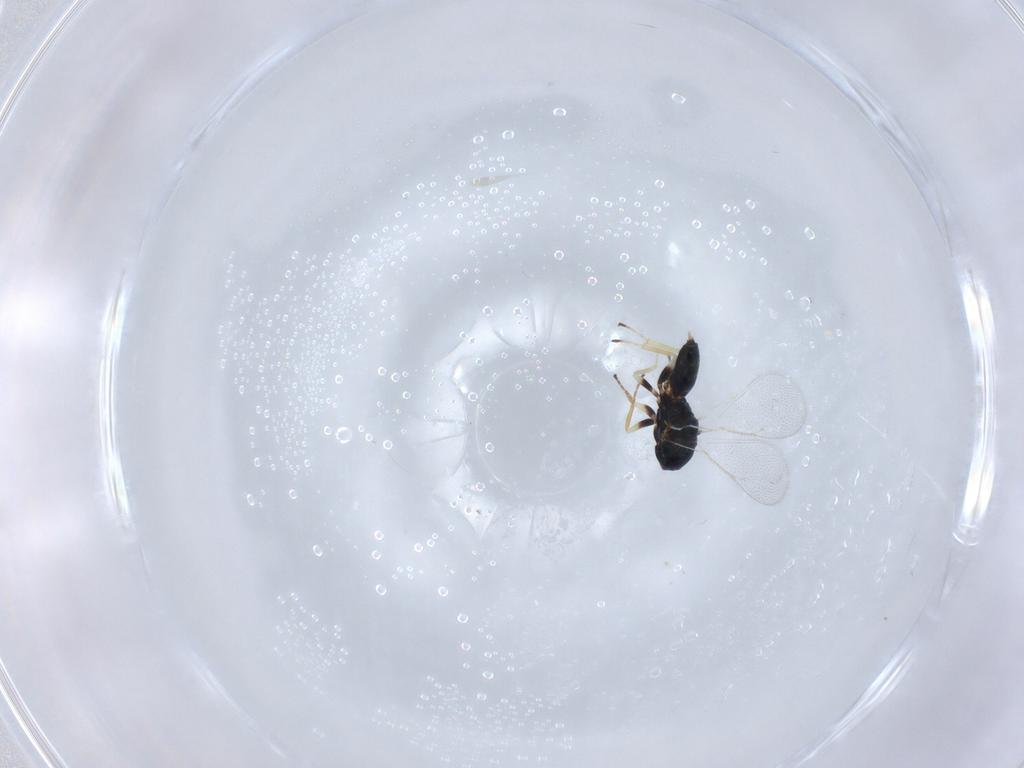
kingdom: Animalia
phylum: Arthropoda
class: Insecta
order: Hymenoptera
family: Eulophidae
